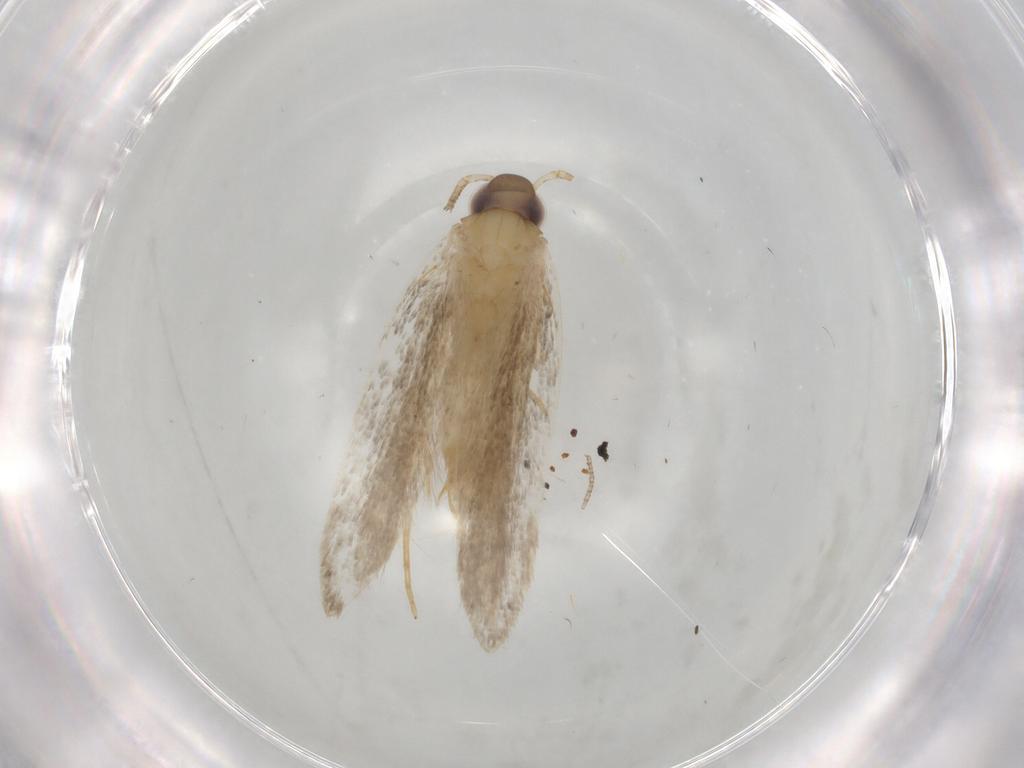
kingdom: Animalia
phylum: Arthropoda
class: Insecta
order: Lepidoptera
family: Autostichidae
